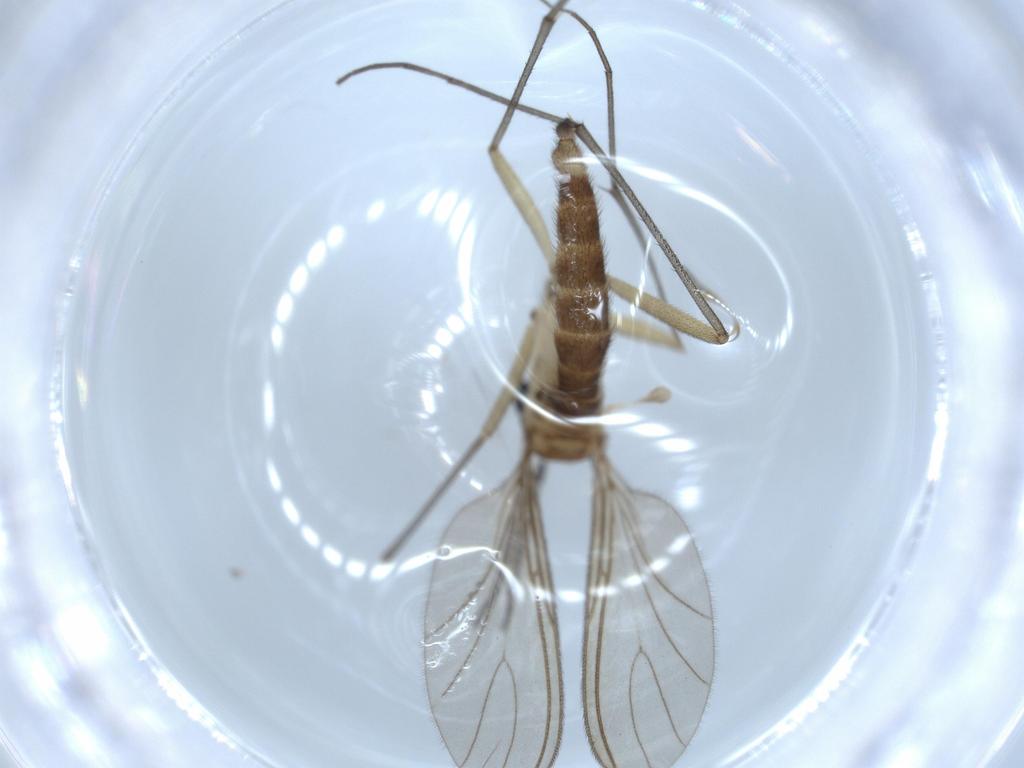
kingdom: Animalia
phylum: Arthropoda
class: Insecta
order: Diptera
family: Sciaridae
